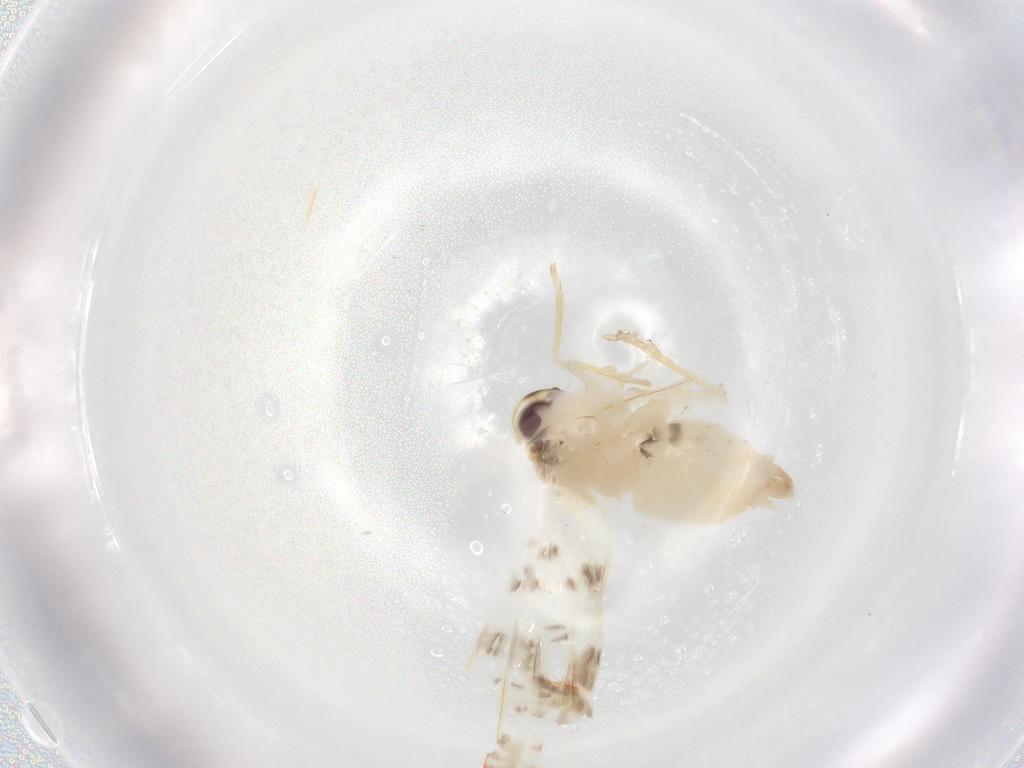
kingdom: Animalia
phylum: Arthropoda
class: Insecta
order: Hemiptera
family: Derbidae
